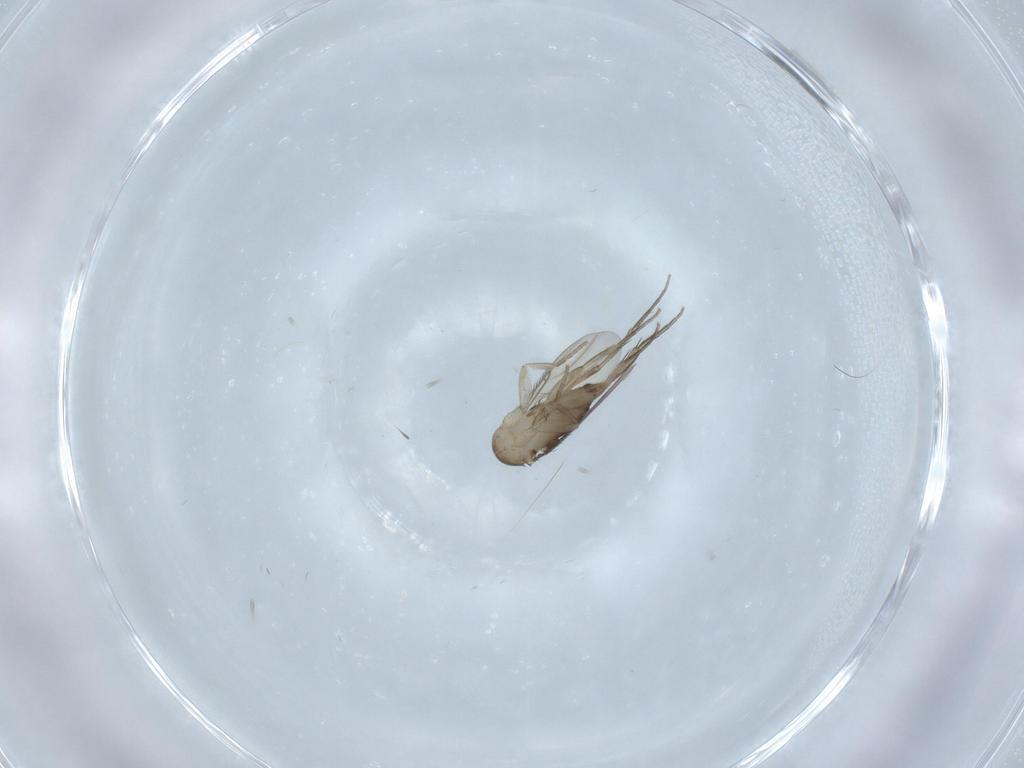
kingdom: Animalia
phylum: Arthropoda
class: Insecta
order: Diptera
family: Phoridae
